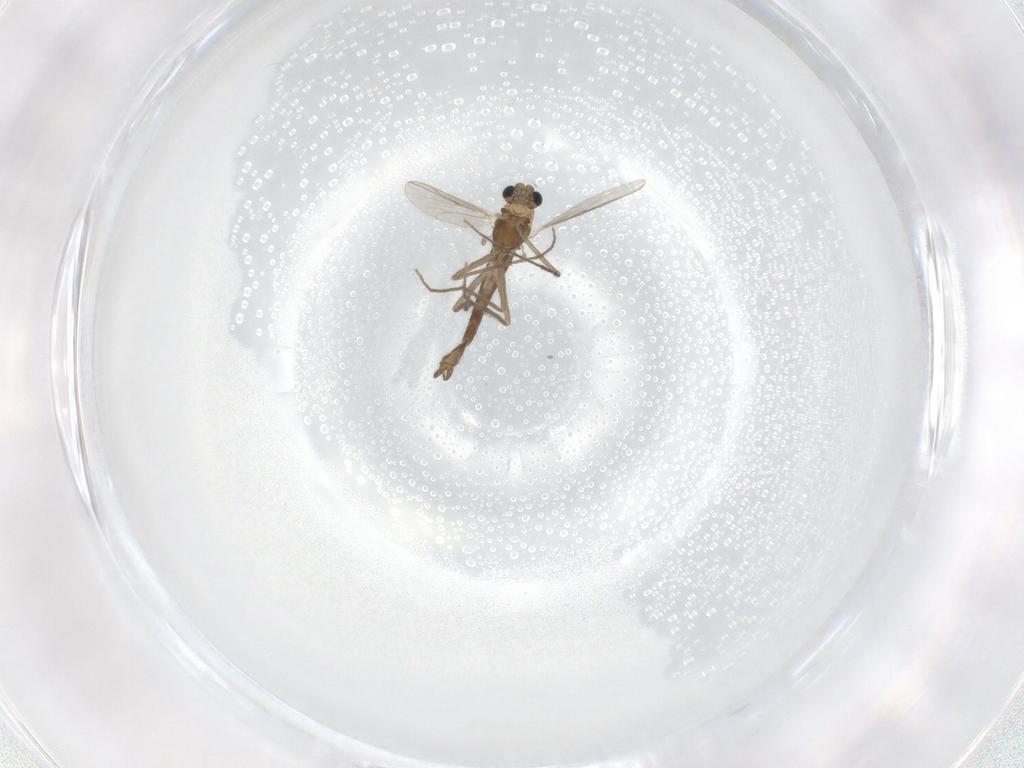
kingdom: Animalia
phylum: Arthropoda
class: Insecta
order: Diptera
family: Chironomidae
